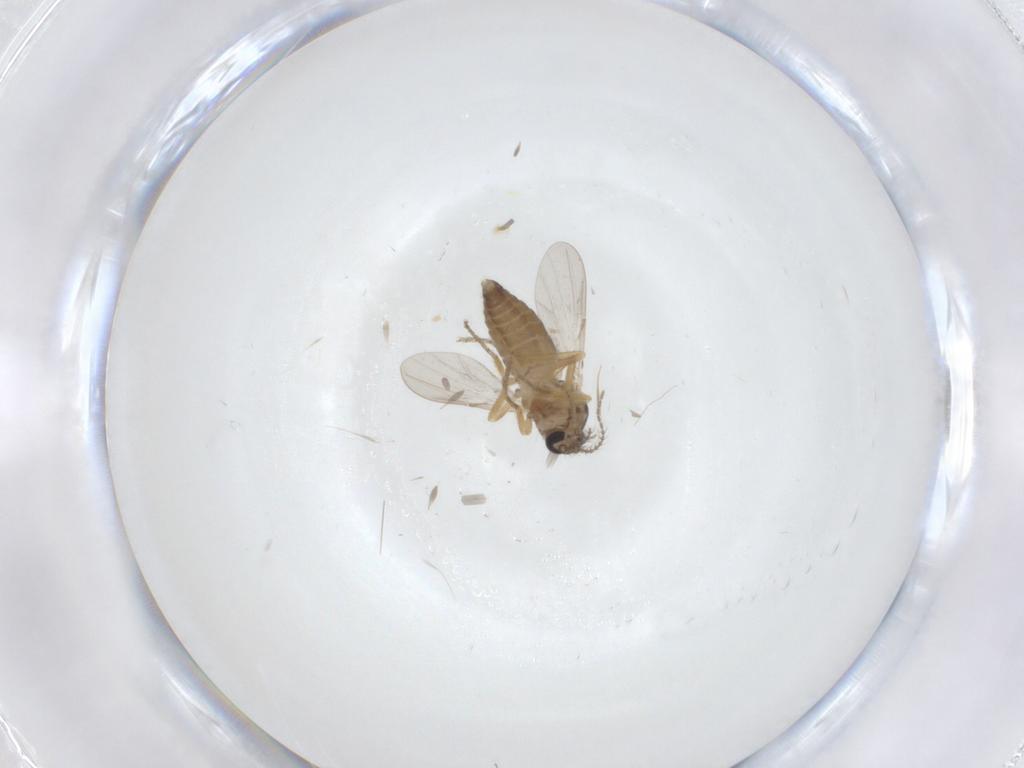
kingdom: Animalia
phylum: Arthropoda
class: Insecta
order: Diptera
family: Ceratopogonidae
